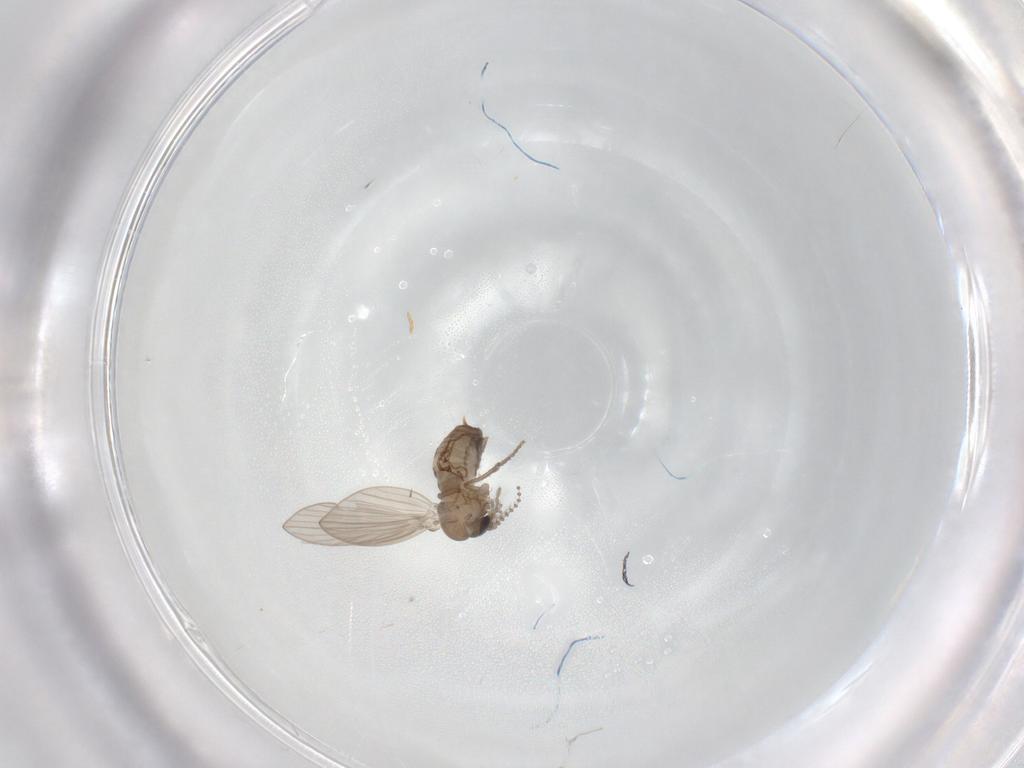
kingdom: Animalia
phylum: Arthropoda
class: Insecta
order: Diptera
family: Psychodidae
